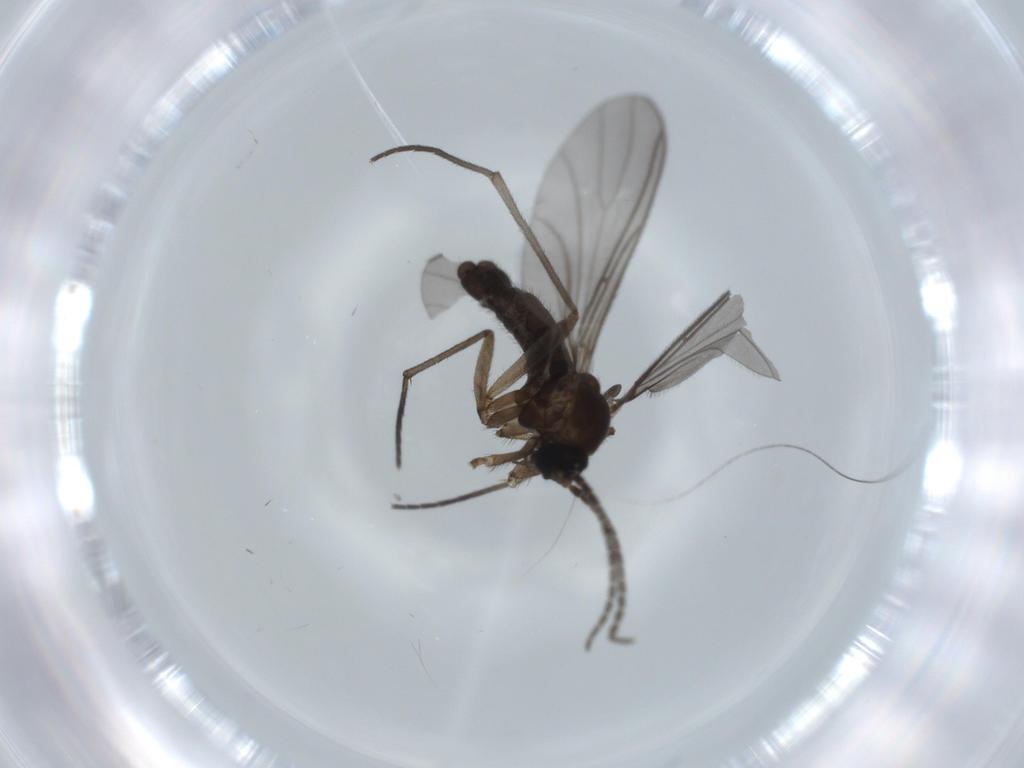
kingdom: Animalia
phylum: Arthropoda
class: Insecta
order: Diptera
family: Sciaridae
